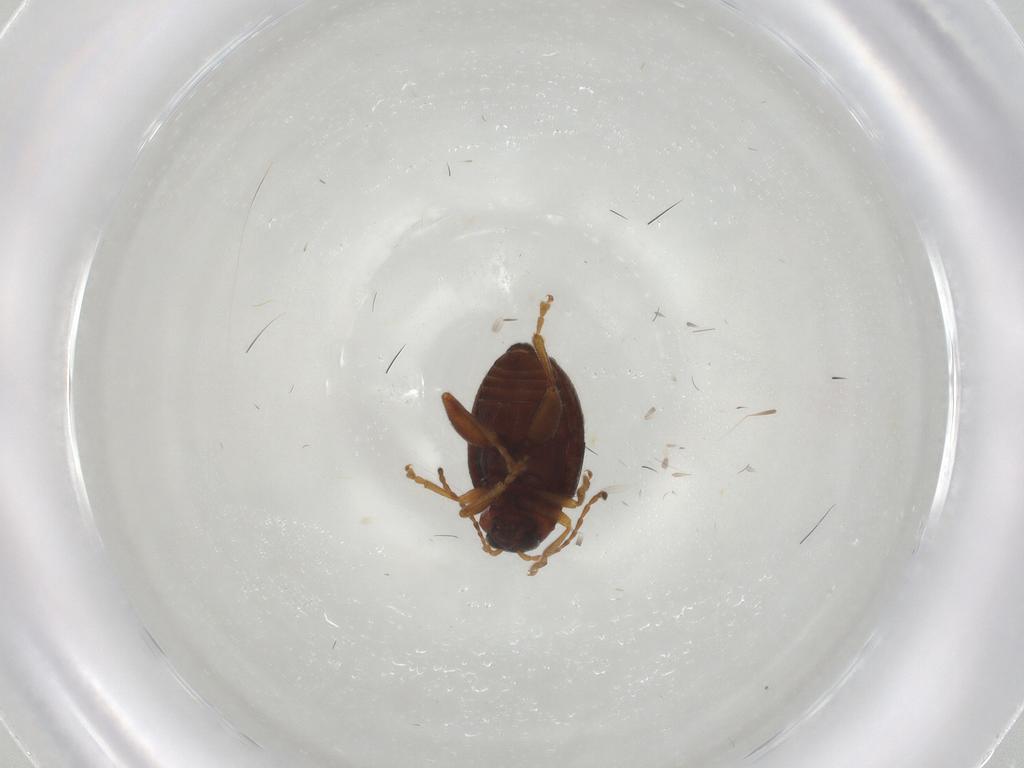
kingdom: Animalia
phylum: Arthropoda
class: Insecta
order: Coleoptera
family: Chrysomelidae
